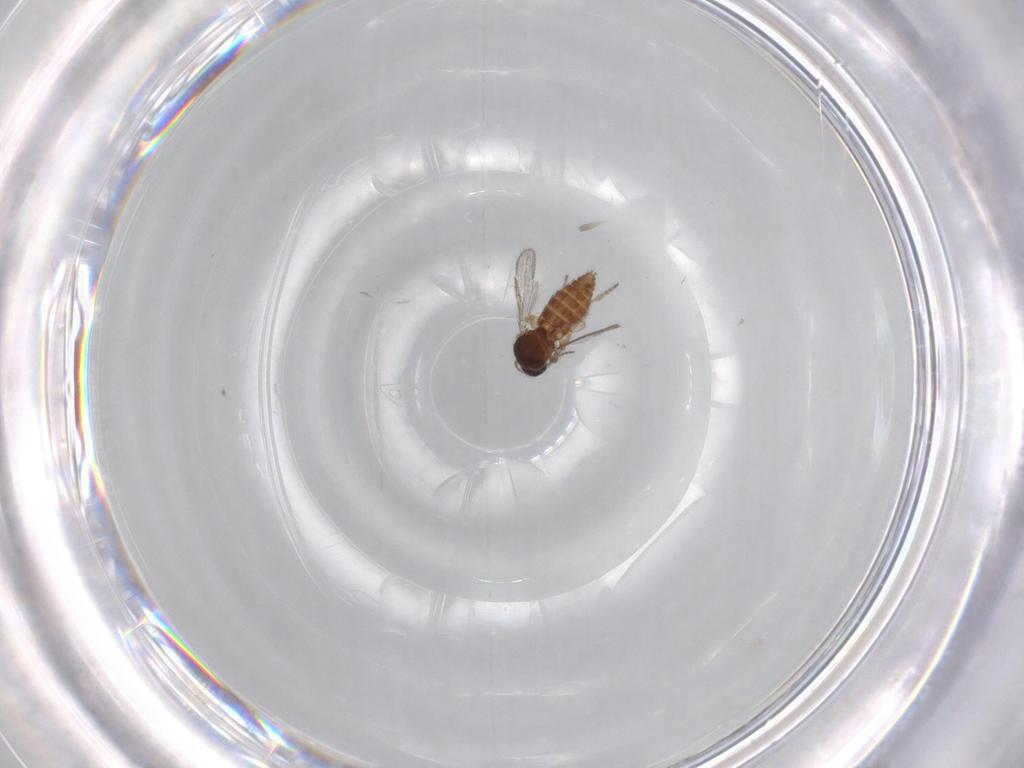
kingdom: Animalia
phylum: Arthropoda
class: Insecta
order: Diptera
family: Ceratopogonidae
